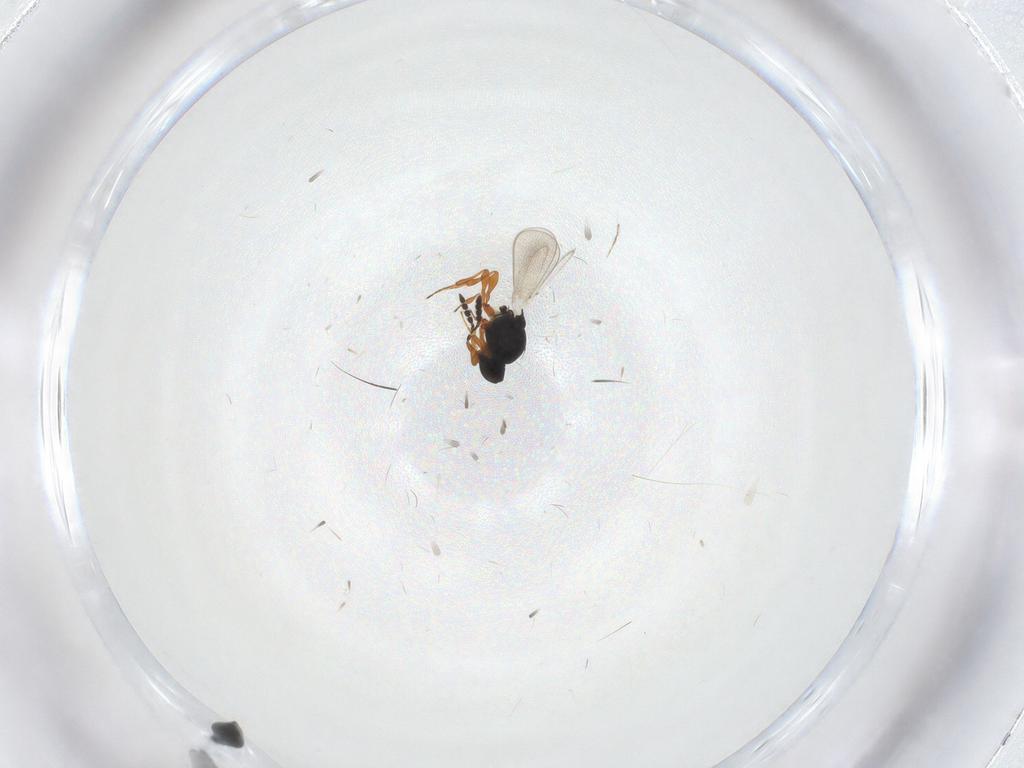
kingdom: Animalia
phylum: Arthropoda
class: Insecta
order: Hymenoptera
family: Platygastridae
